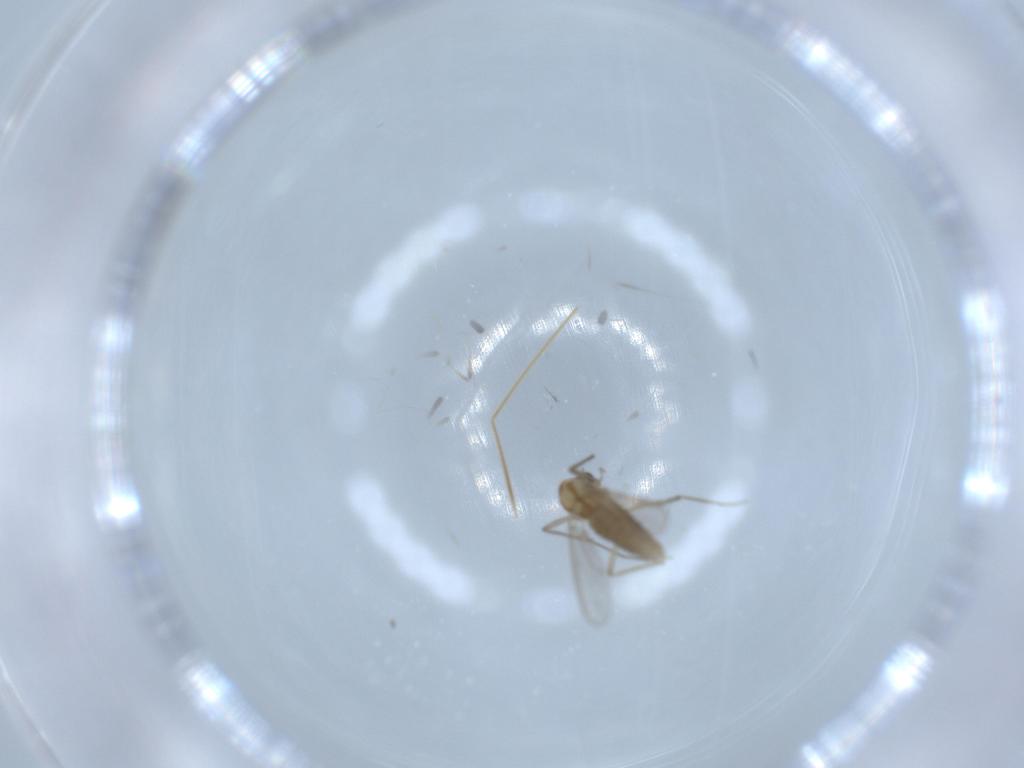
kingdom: Animalia
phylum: Arthropoda
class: Insecta
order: Diptera
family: Chironomidae
